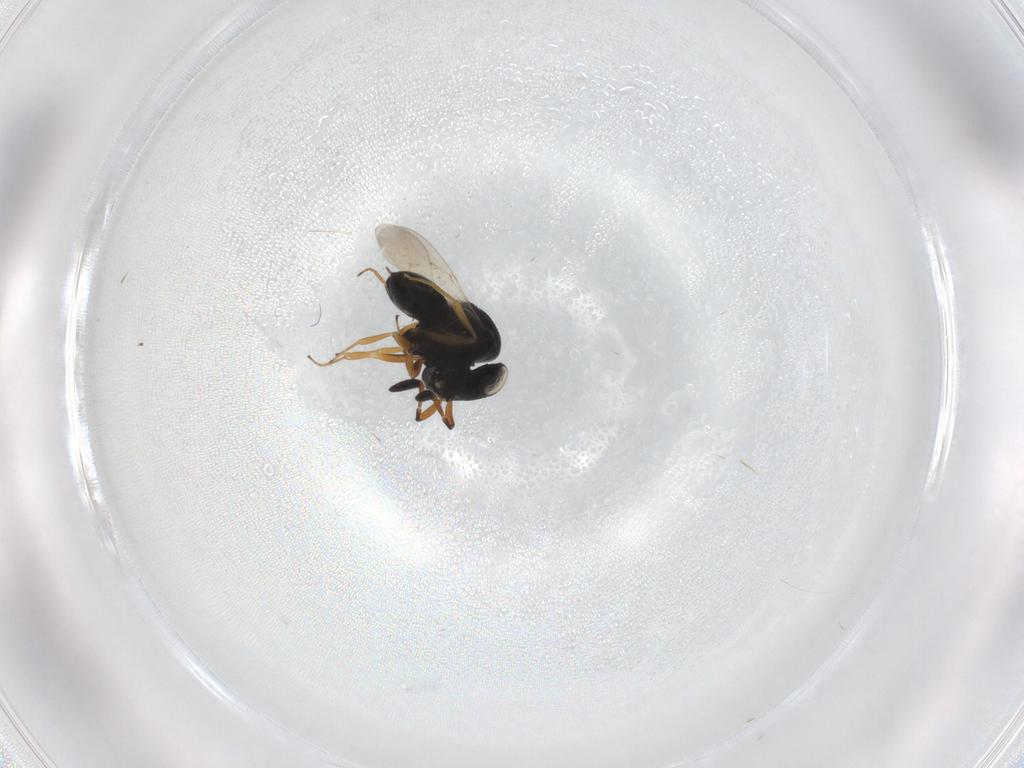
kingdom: Animalia
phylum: Arthropoda
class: Insecta
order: Hymenoptera
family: Scelionidae
